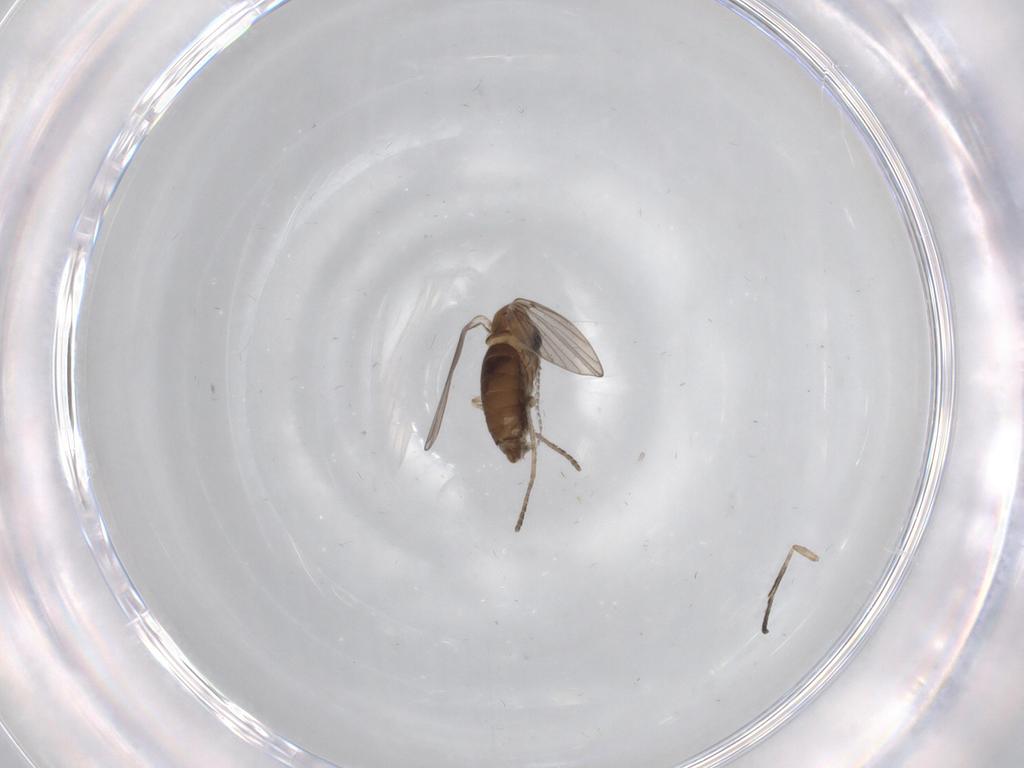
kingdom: Animalia
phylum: Arthropoda
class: Insecta
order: Diptera
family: Psychodidae
